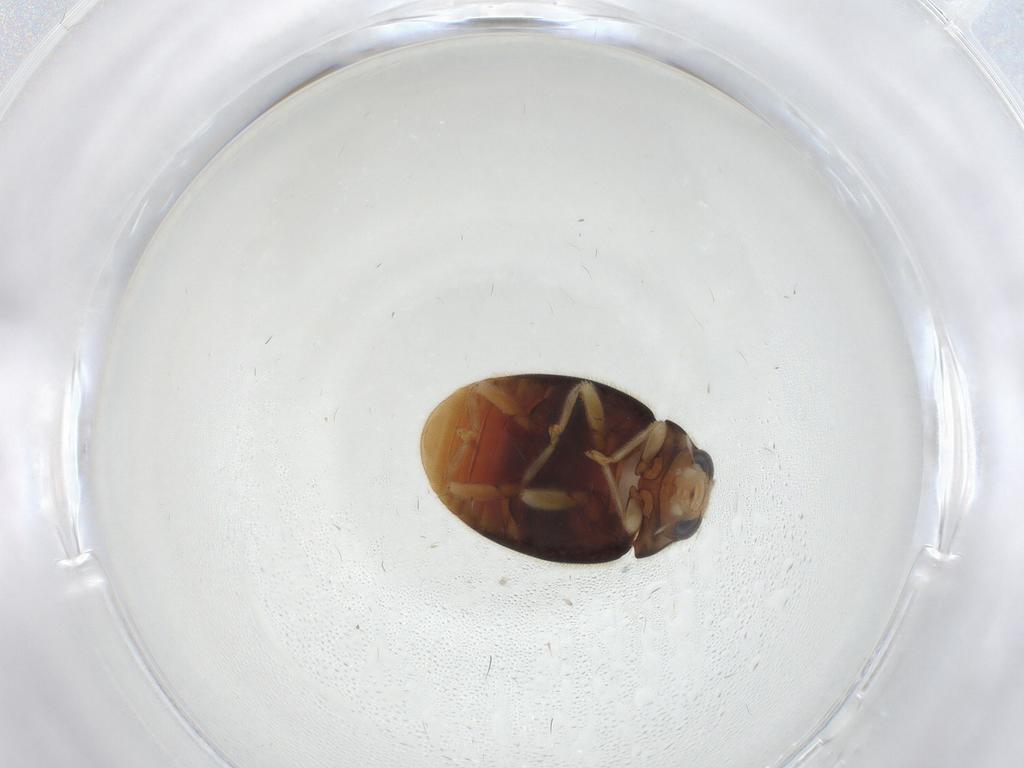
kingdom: Animalia
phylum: Arthropoda
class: Insecta
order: Coleoptera
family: Coccinellidae
